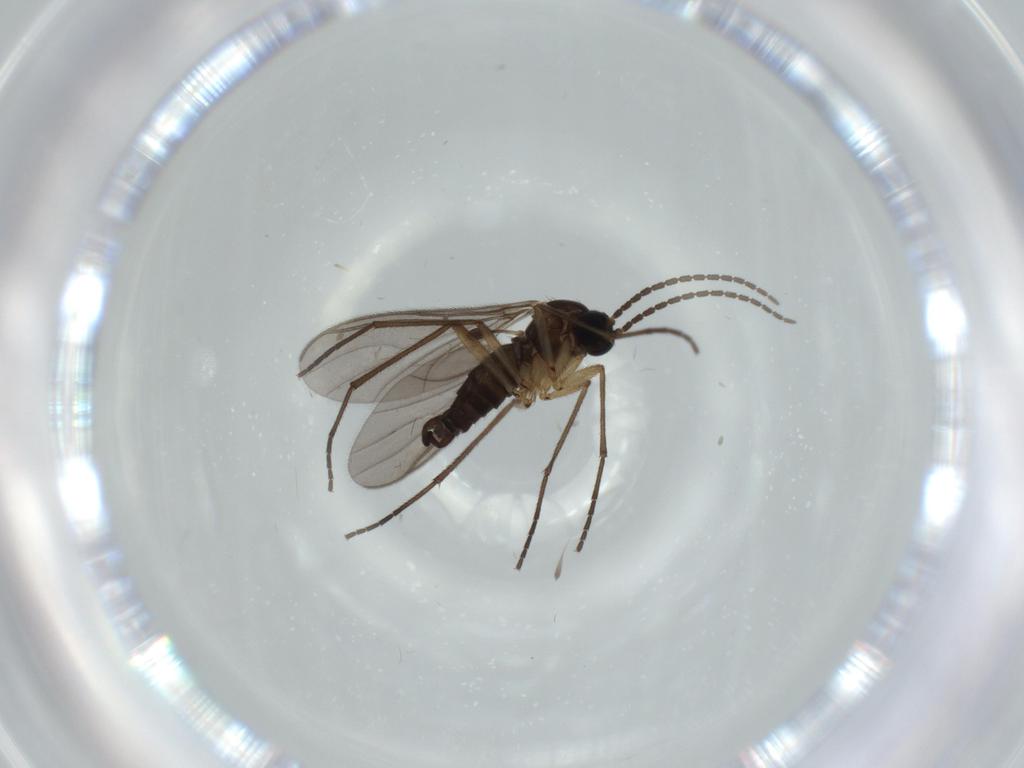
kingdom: Animalia
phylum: Arthropoda
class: Insecta
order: Diptera
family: Sciaridae
